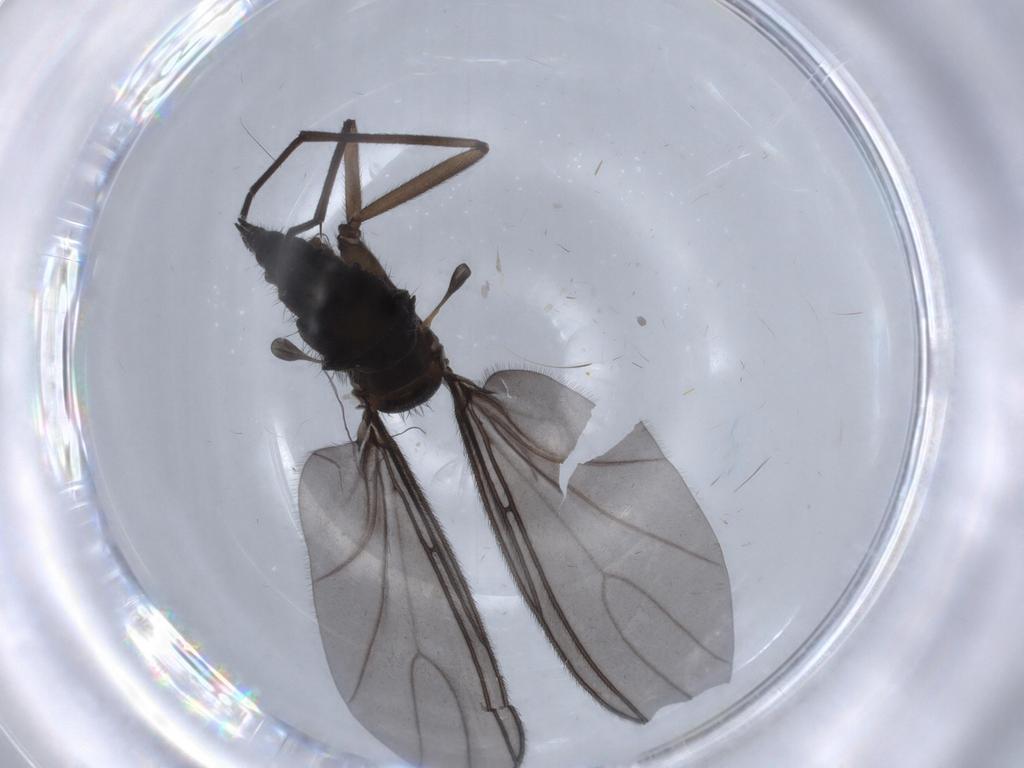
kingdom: Animalia
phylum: Arthropoda
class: Insecta
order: Diptera
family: Sciaridae
